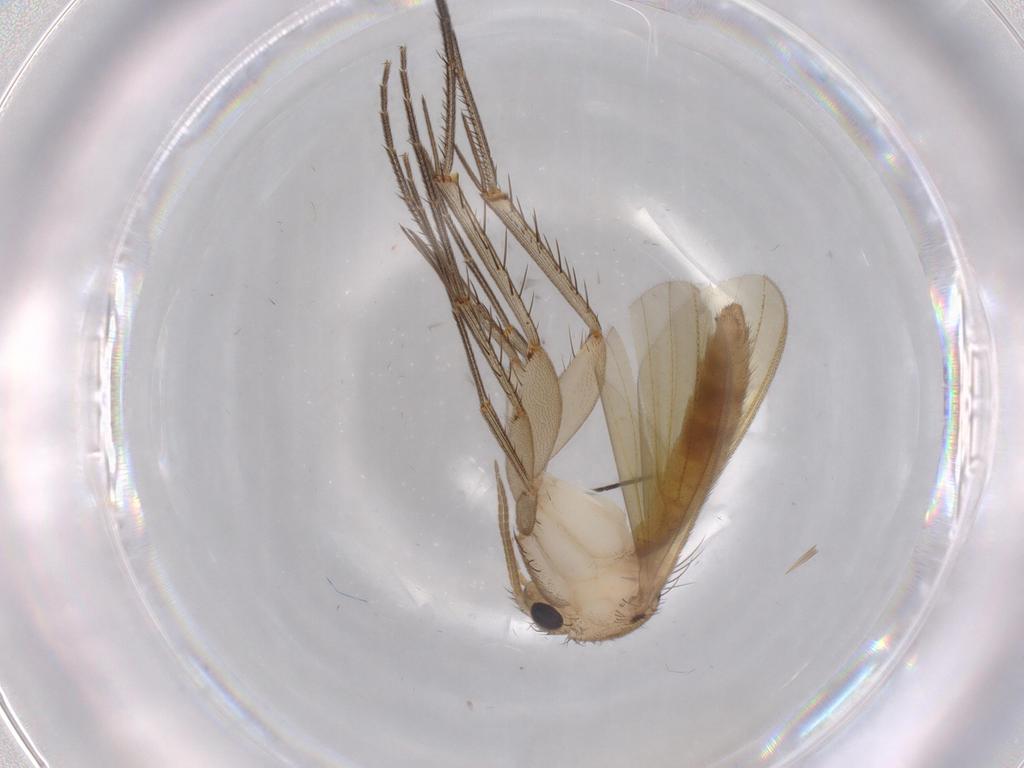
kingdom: Animalia
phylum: Arthropoda
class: Insecta
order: Diptera
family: Mycetophilidae
